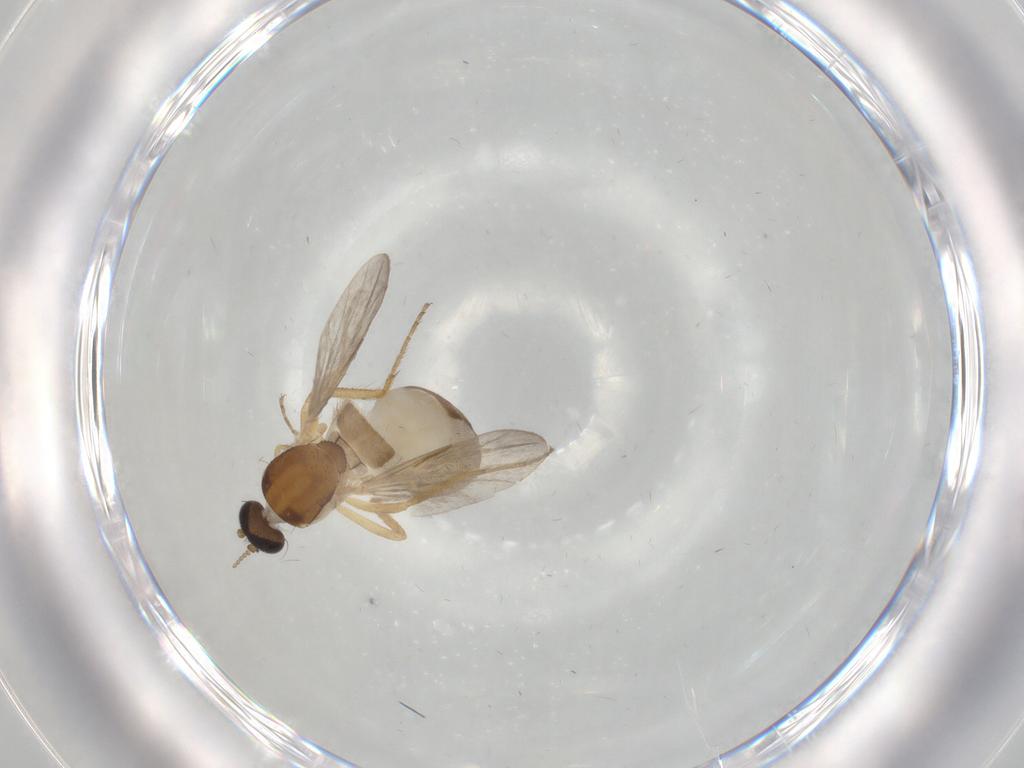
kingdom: Animalia
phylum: Arthropoda
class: Insecta
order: Diptera
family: Ceratopogonidae
